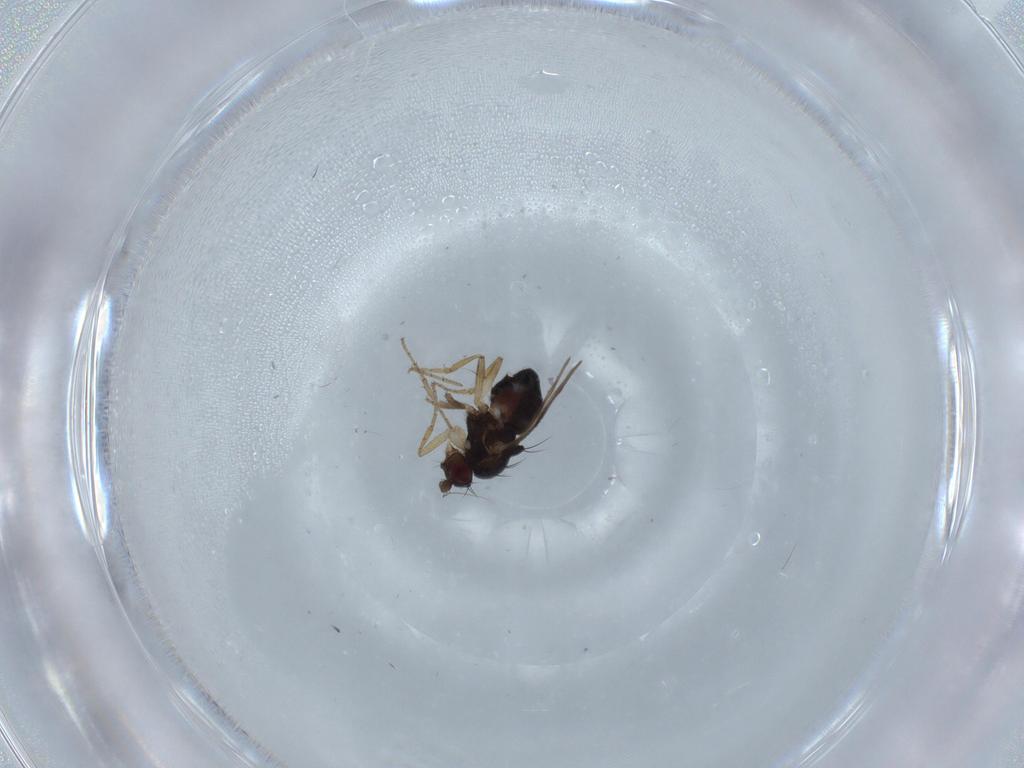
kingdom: Animalia
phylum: Arthropoda
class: Insecta
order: Diptera
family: Sphaeroceridae
